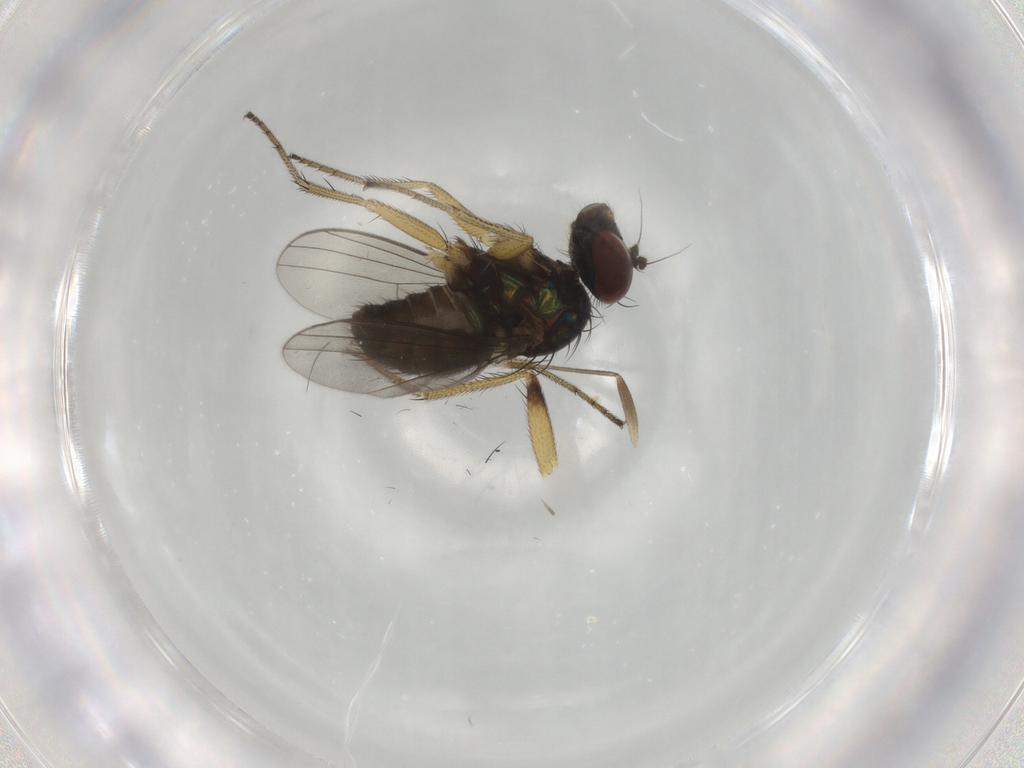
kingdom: Animalia
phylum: Arthropoda
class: Insecta
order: Diptera
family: Dolichopodidae
